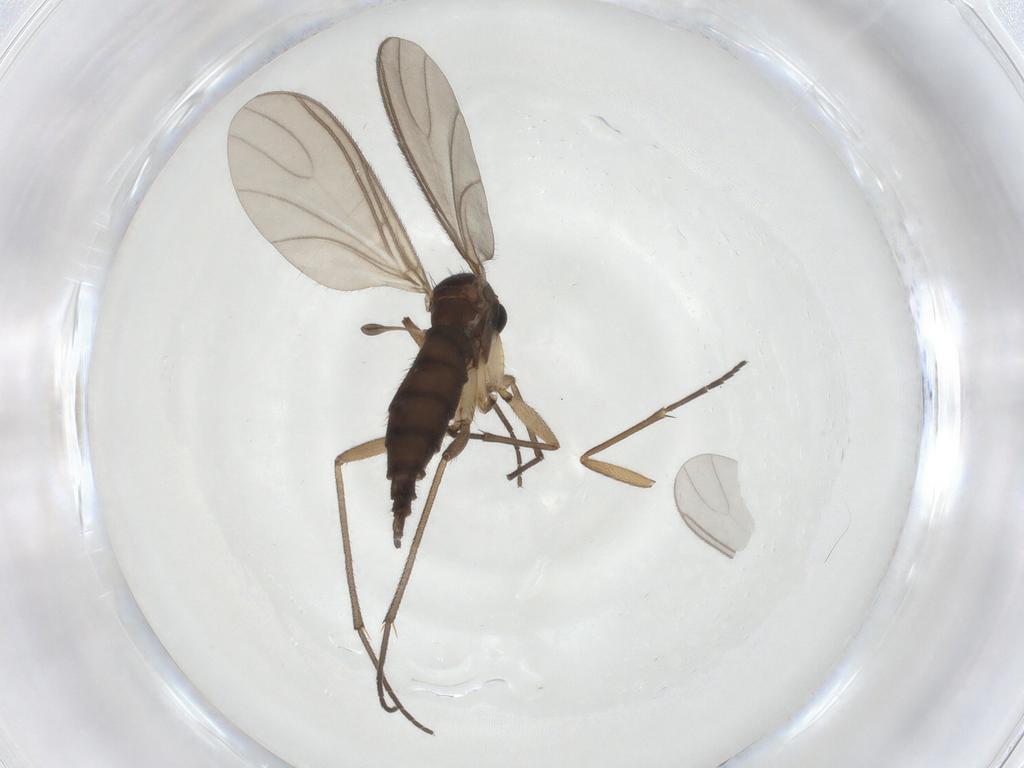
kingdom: Animalia
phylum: Arthropoda
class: Insecta
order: Diptera
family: Sciaridae
